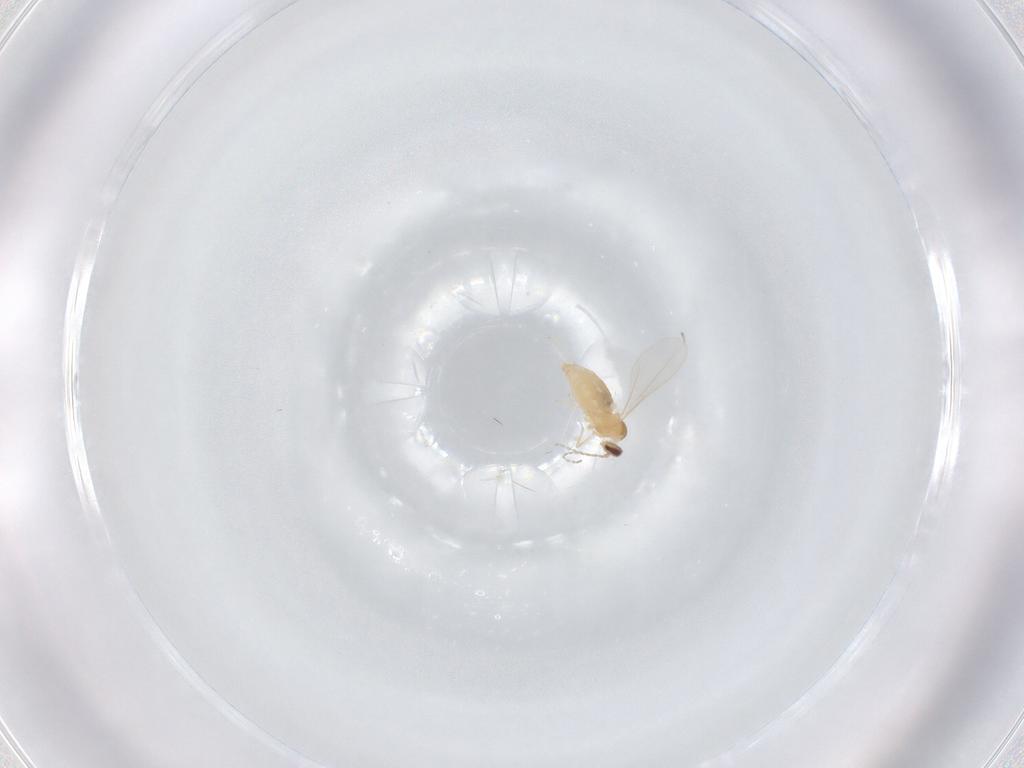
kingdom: Animalia
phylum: Arthropoda
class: Insecta
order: Diptera
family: Cecidomyiidae
